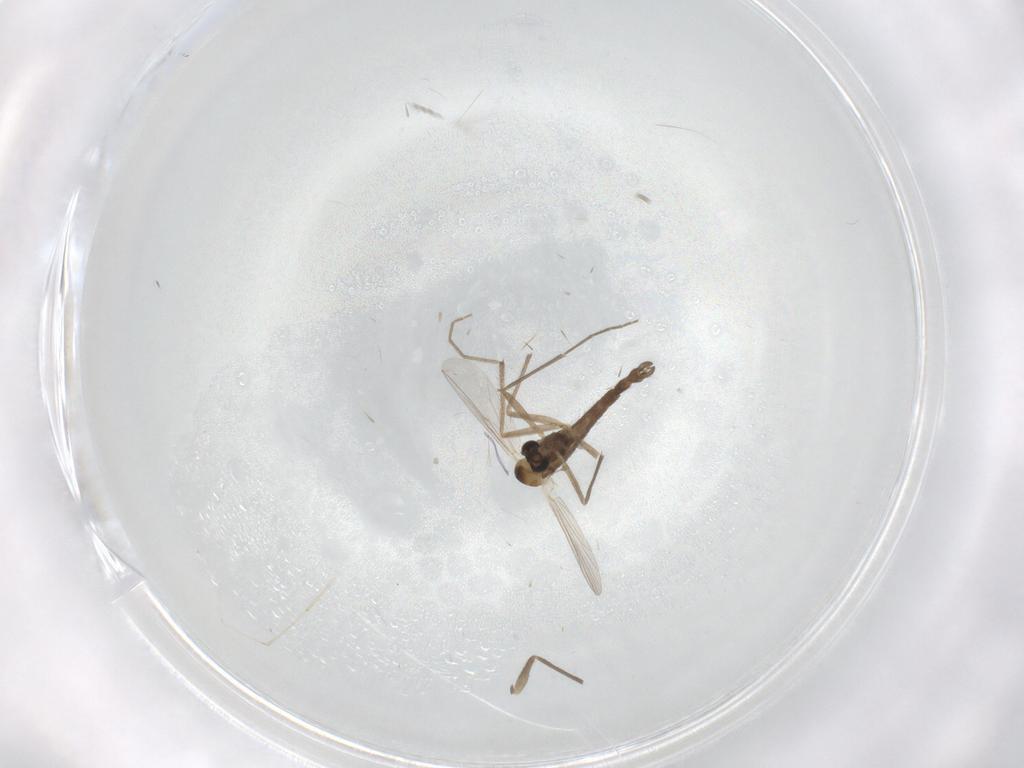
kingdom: Animalia
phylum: Arthropoda
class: Insecta
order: Diptera
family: Chironomidae
